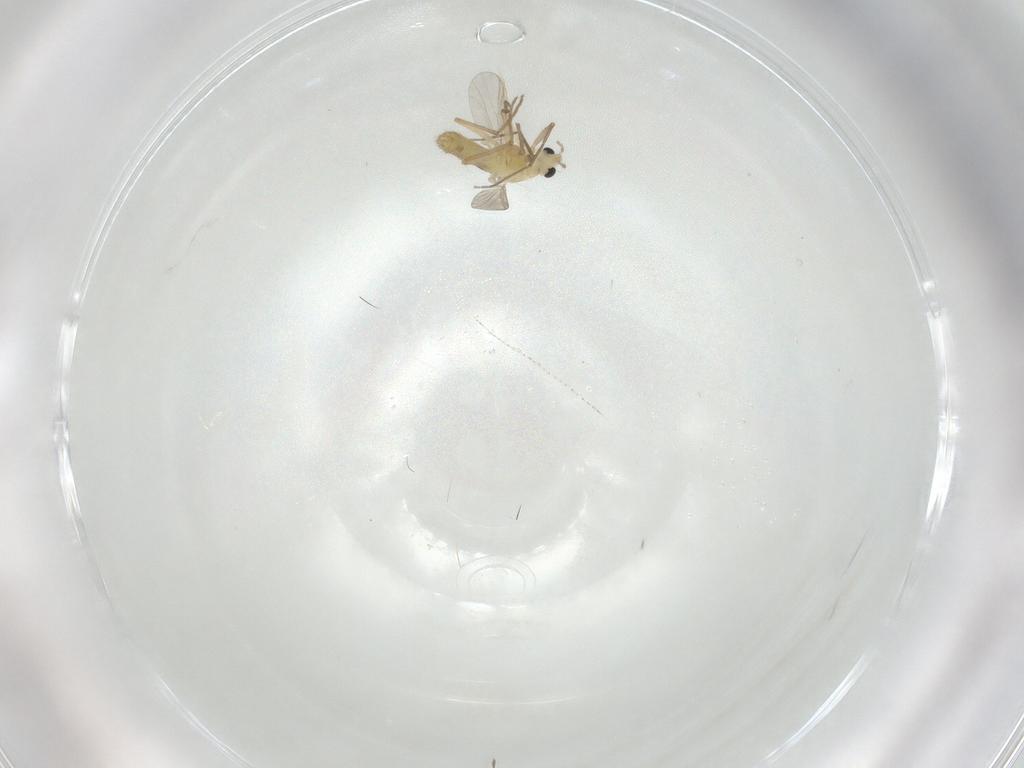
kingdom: Animalia
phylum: Arthropoda
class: Insecta
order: Diptera
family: Chironomidae
